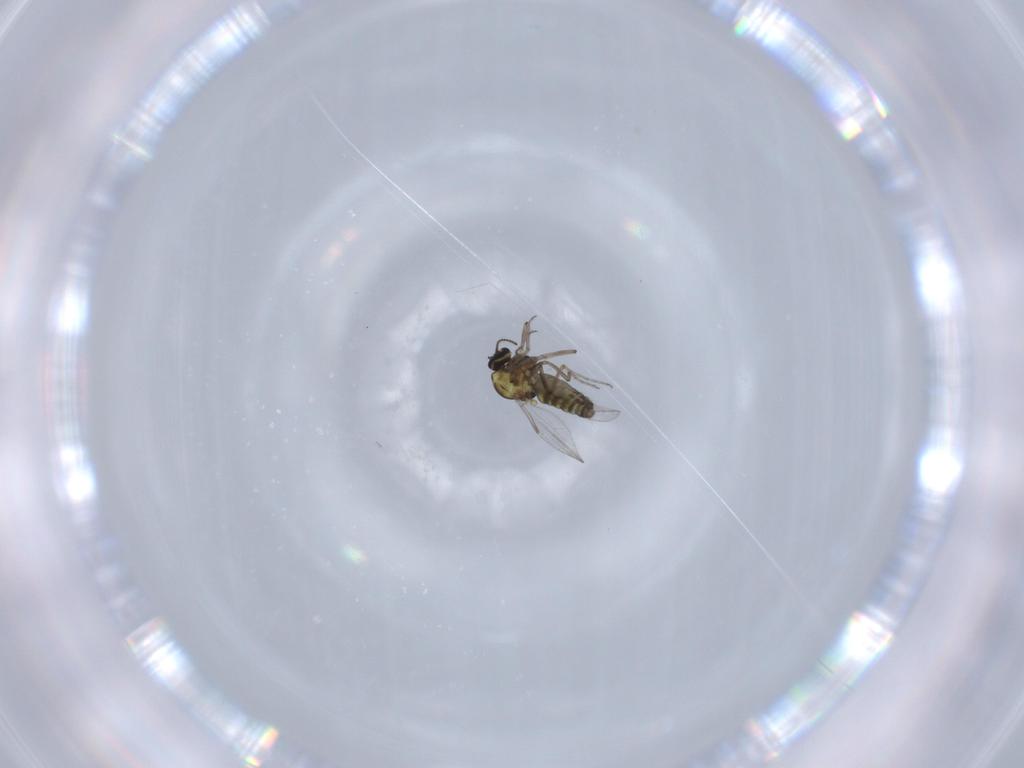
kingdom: Animalia
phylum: Arthropoda
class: Insecta
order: Diptera
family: Ceratopogonidae
